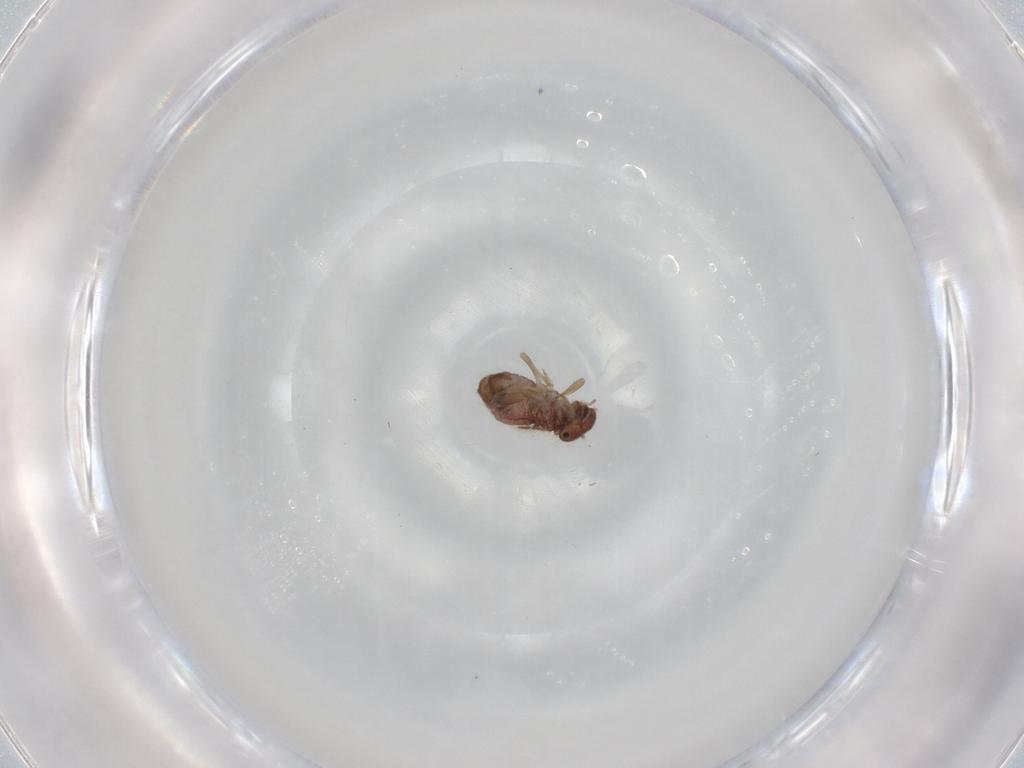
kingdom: Animalia
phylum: Arthropoda
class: Insecta
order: Psocodea
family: Archipsocidae
